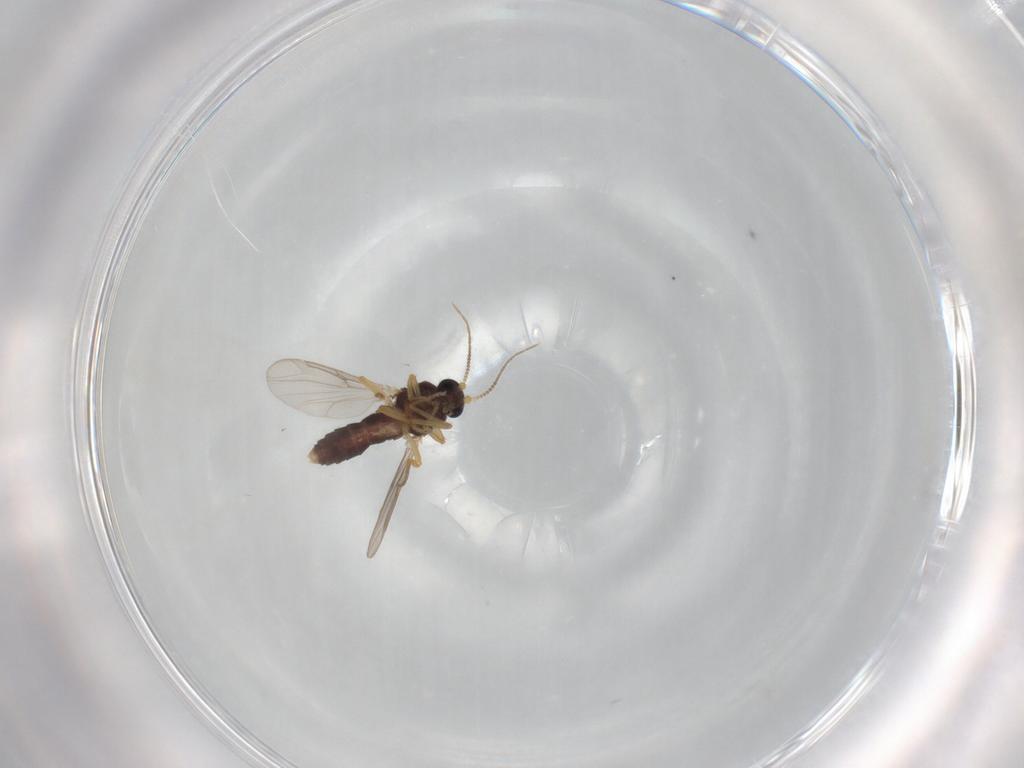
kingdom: Animalia
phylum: Arthropoda
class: Insecta
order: Diptera
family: Ceratopogonidae
